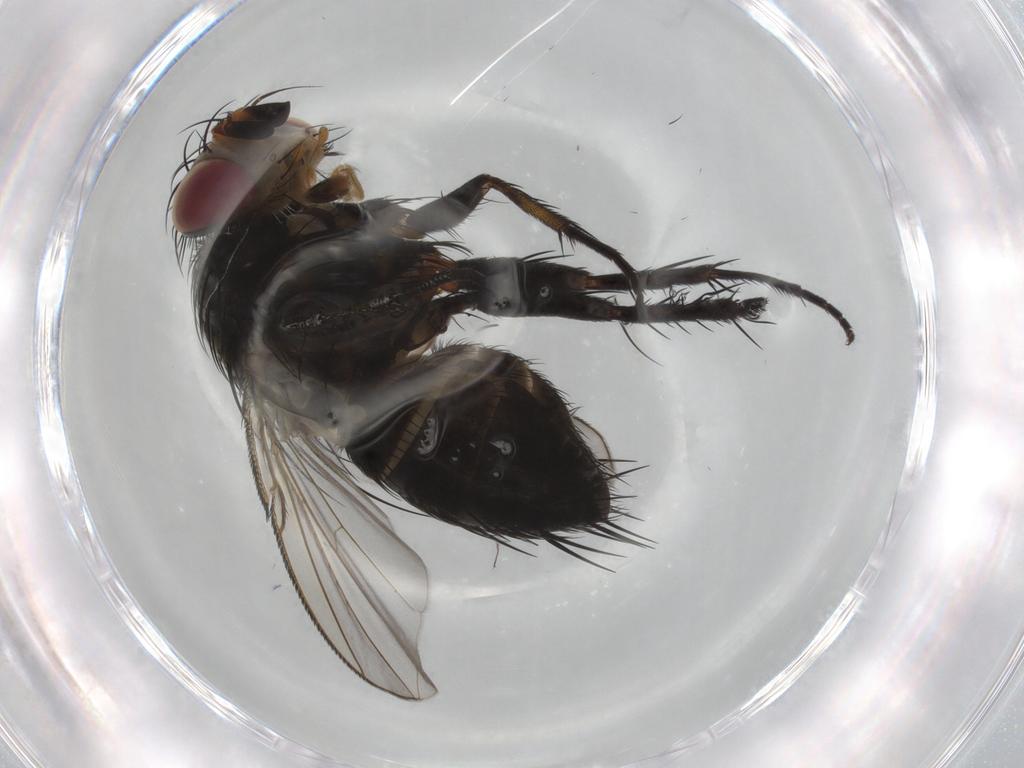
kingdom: Animalia
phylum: Arthropoda
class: Insecta
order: Diptera
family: Tachinidae
